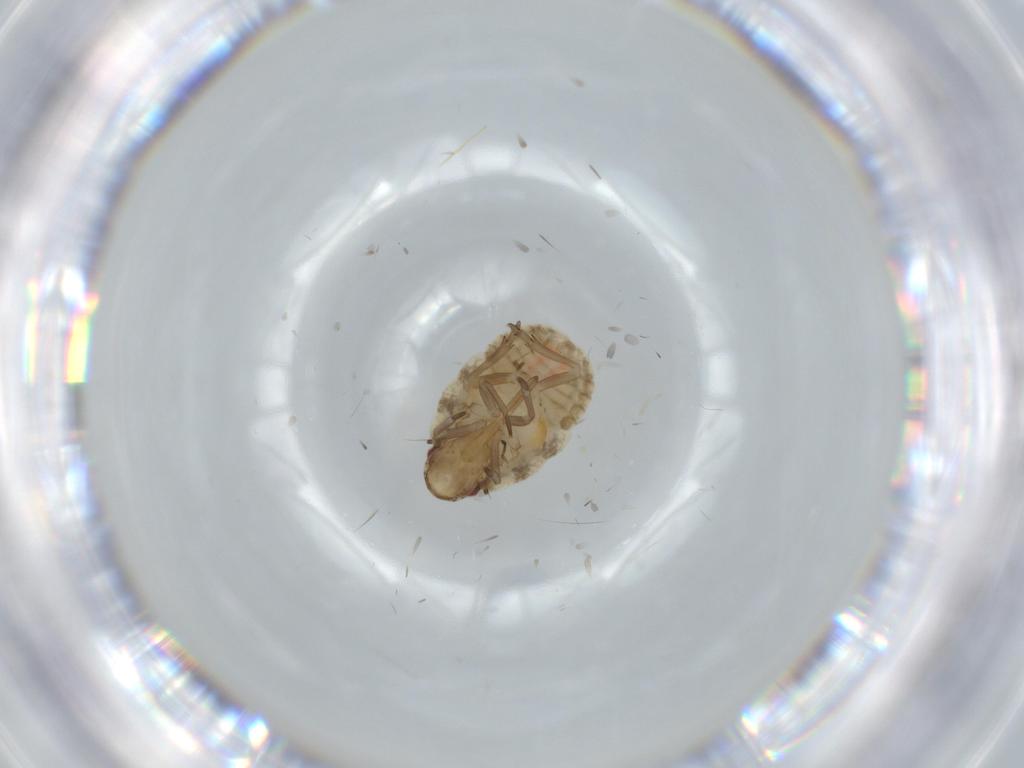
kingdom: Animalia
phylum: Arthropoda
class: Insecta
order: Hemiptera
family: Flatidae
